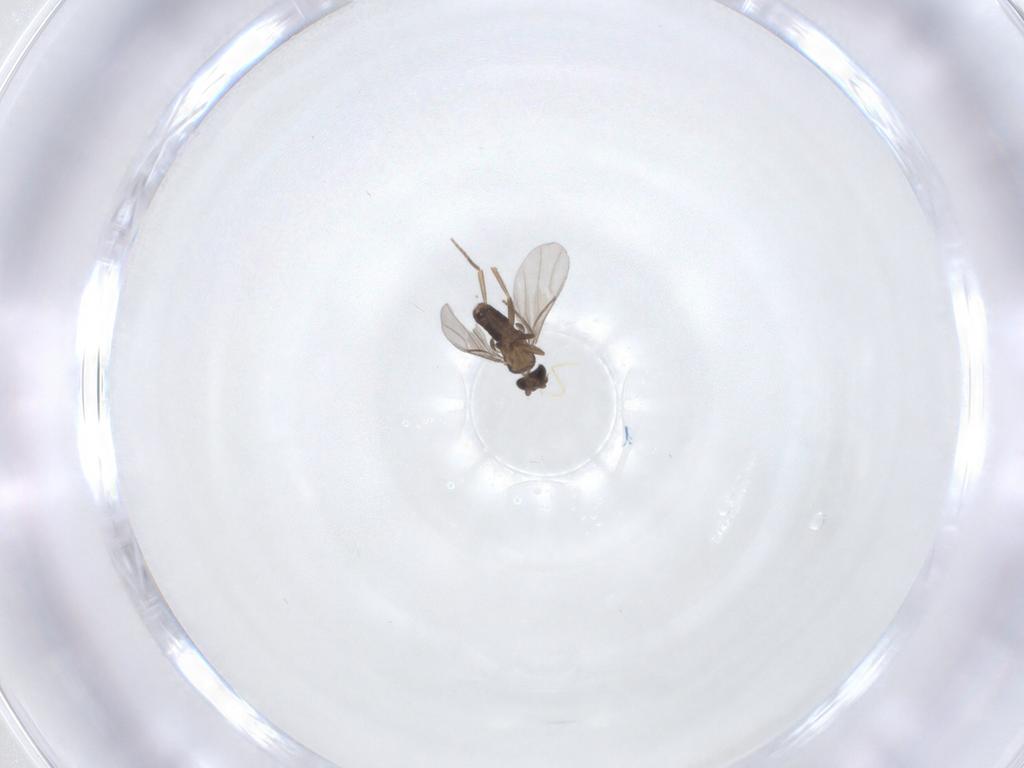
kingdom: Animalia
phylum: Arthropoda
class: Insecta
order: Diptera
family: Phoridae
